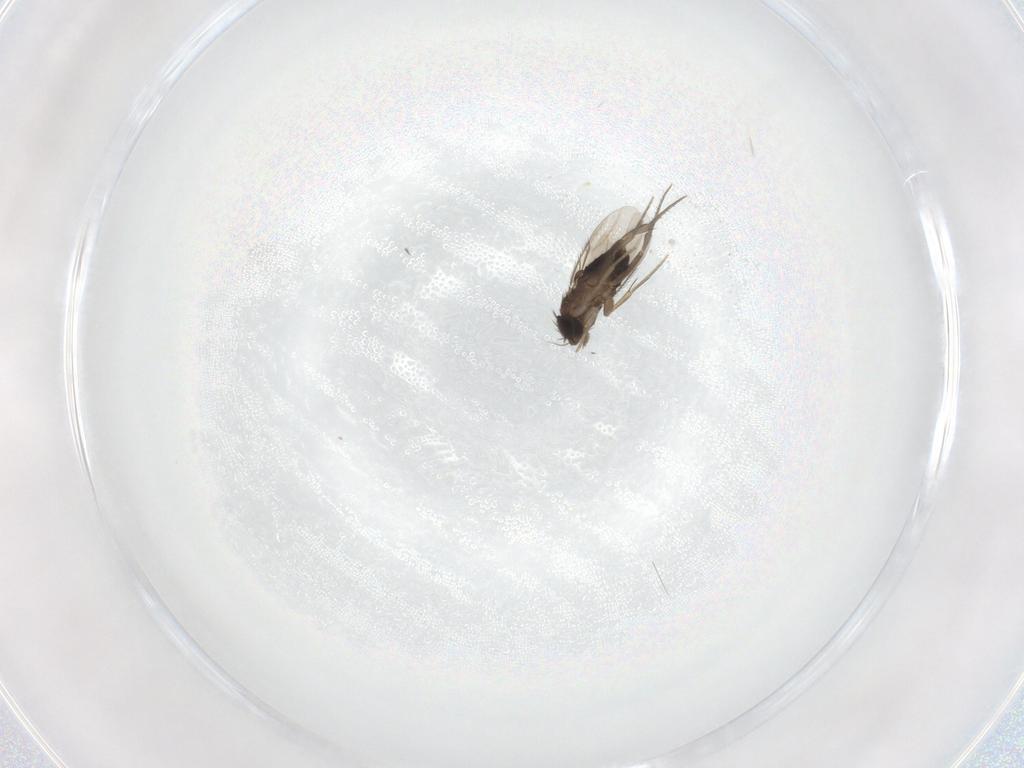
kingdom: Animalia
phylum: Arthropoda
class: Insecta
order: Diptera
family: Phoridae
